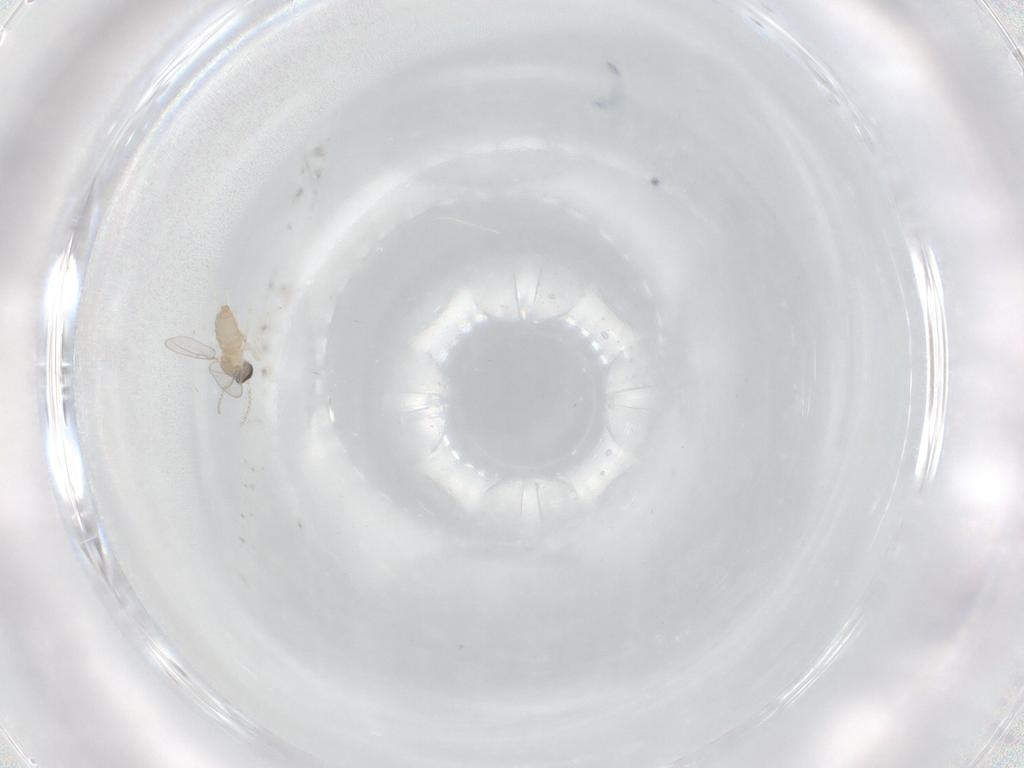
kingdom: Animalia
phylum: Arthropoda
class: Insecta
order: Diptera
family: Cecidomyiidae
